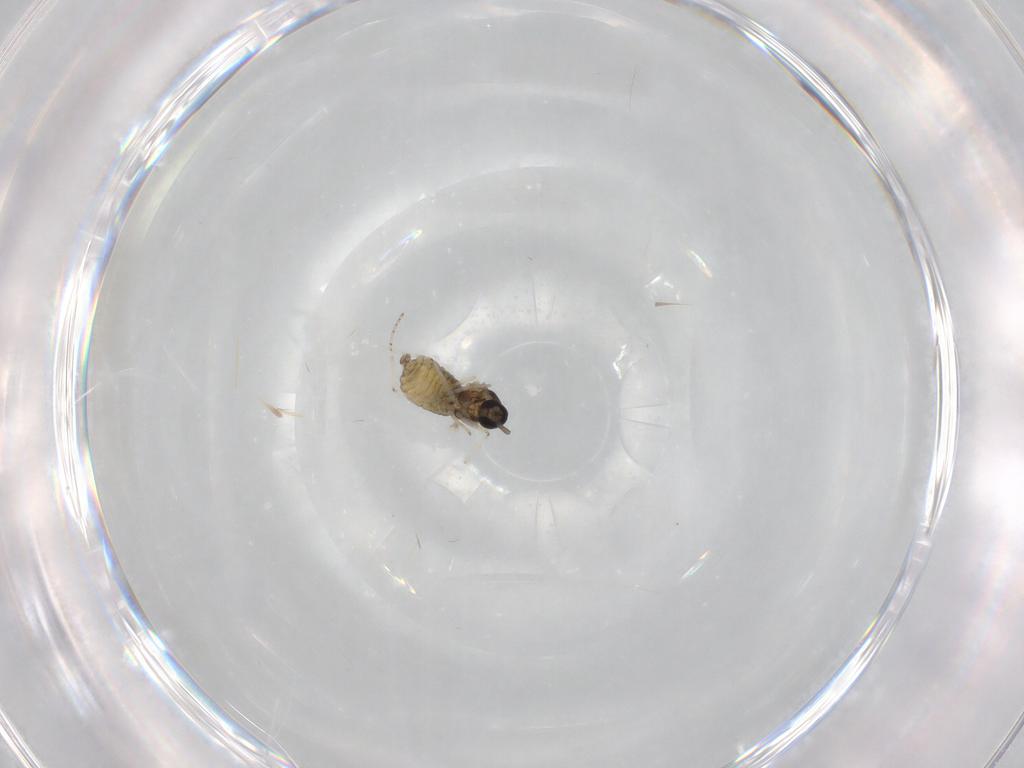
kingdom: Animalia
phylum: Arthropoda
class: Insecta
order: Diptera
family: Cecidomyiidae
